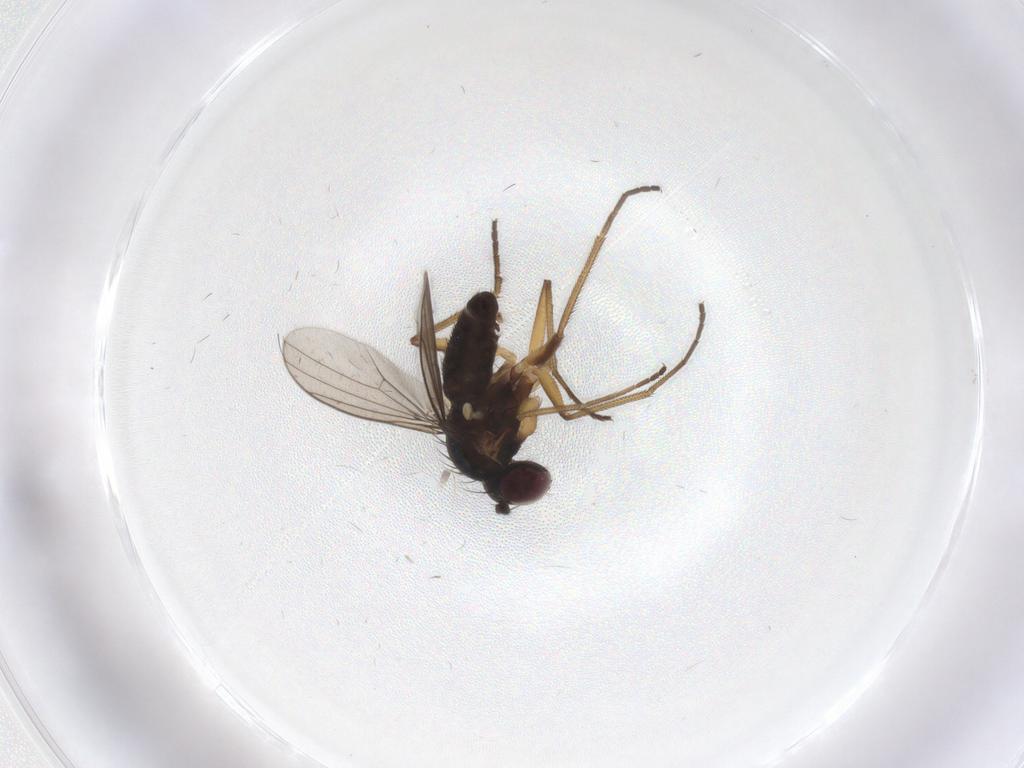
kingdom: Animalia
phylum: Arthropoda
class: Insecta
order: Diptera
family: Dolichopodidae
